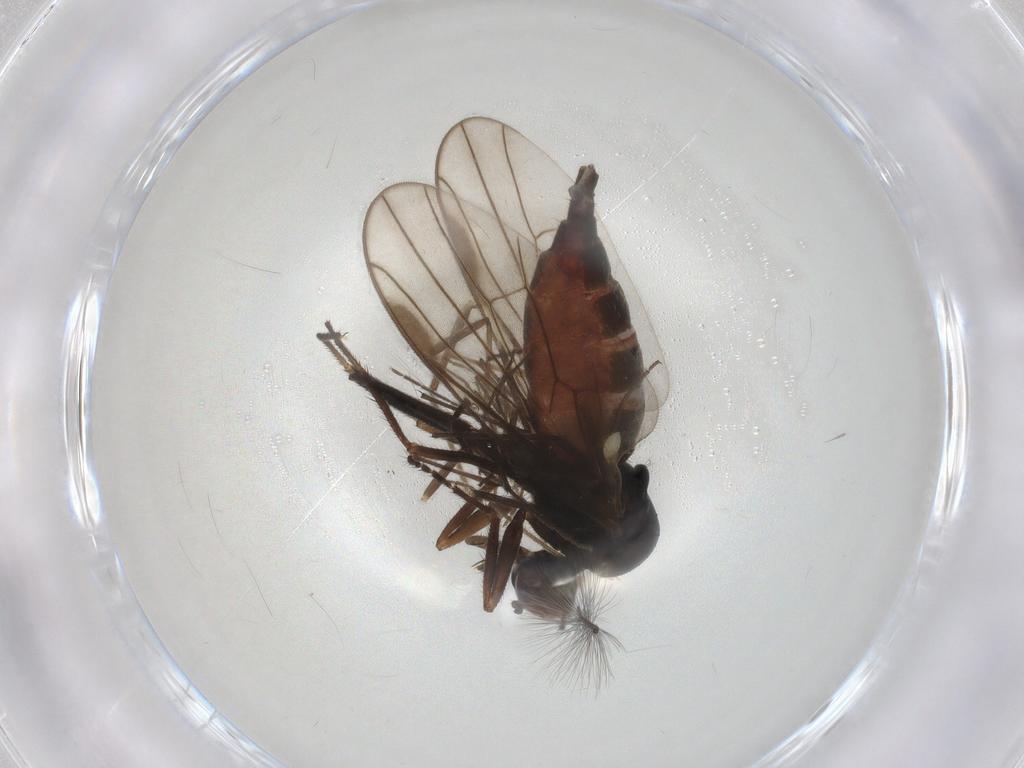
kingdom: Animalia
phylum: Arthropoda
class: Insecta
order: Diptera
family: Hybotidae
